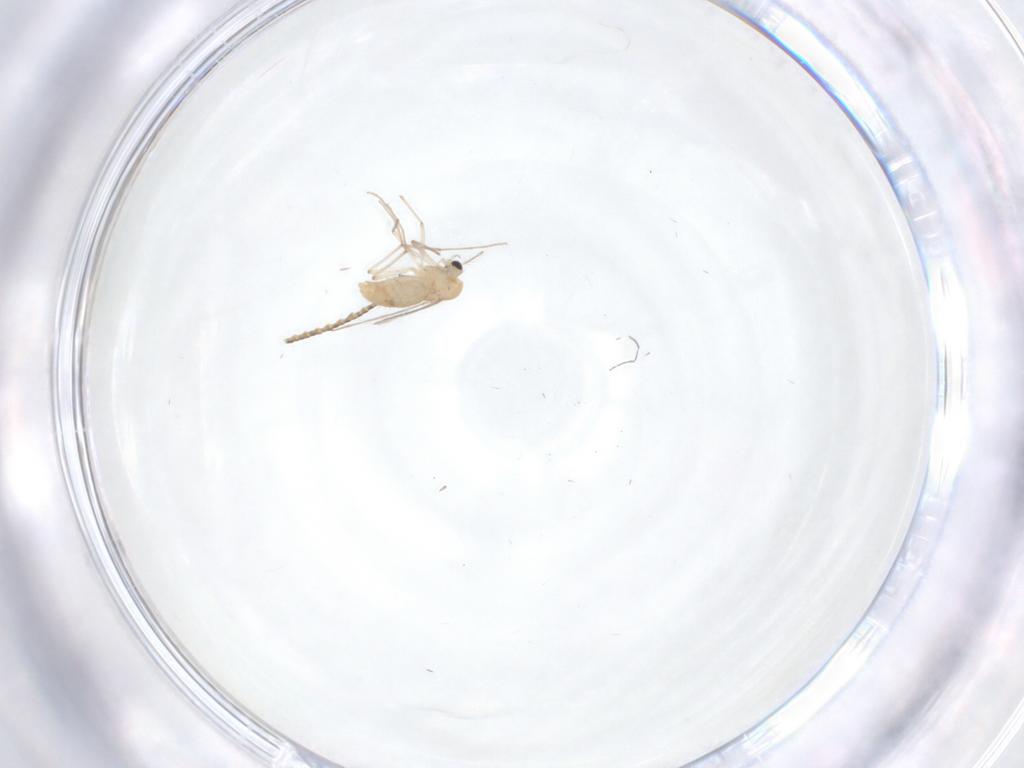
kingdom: Animalia
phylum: Arthropoda
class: Insecta
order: Diptera
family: Chironomidae
